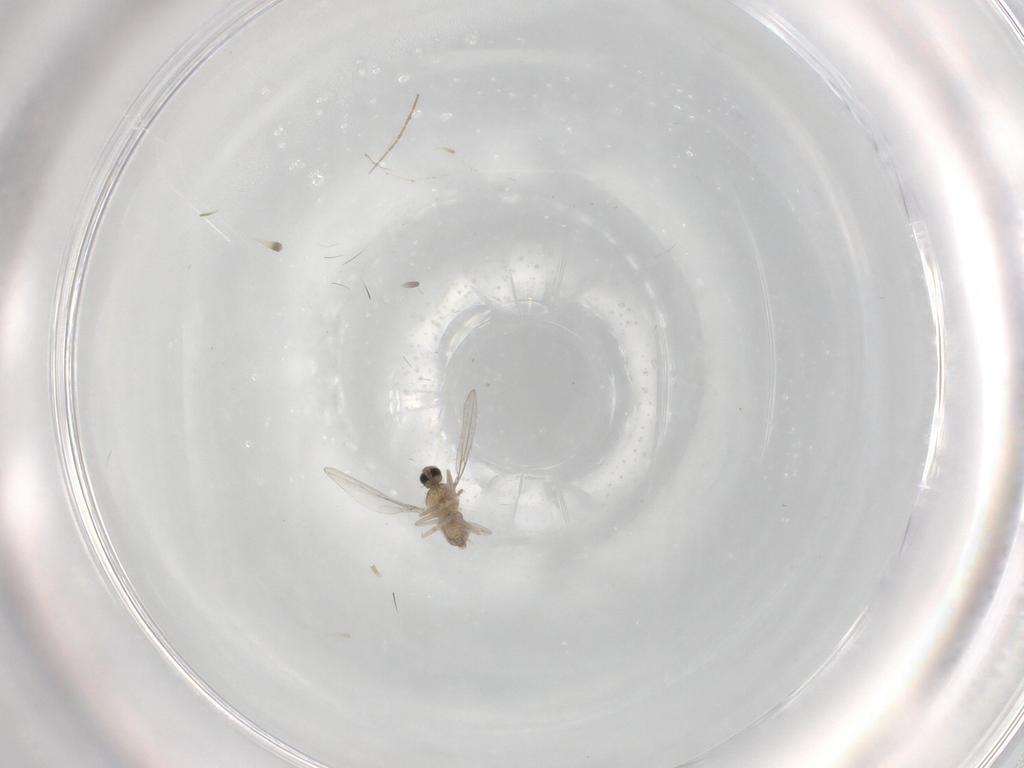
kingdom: Animalia
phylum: Arthropoda
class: Insecta
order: Diptera
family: Cecidomyiidae
